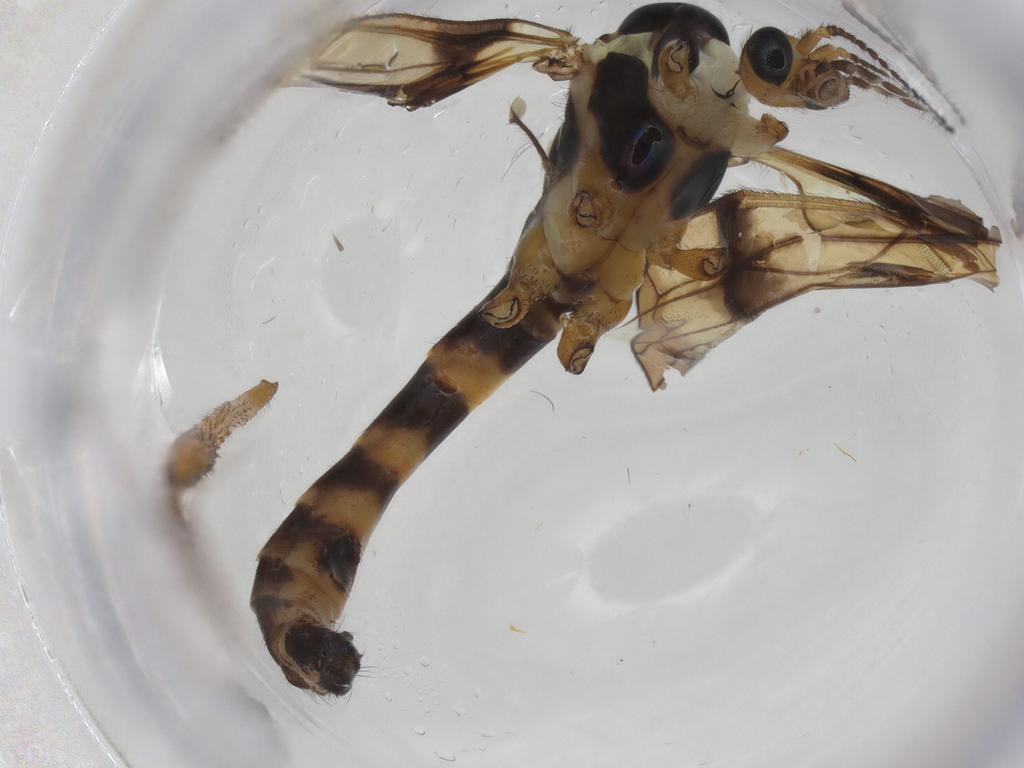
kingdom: Animalia
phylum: Arthropoda
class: Insecta
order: Diptera
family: Limoniidae
